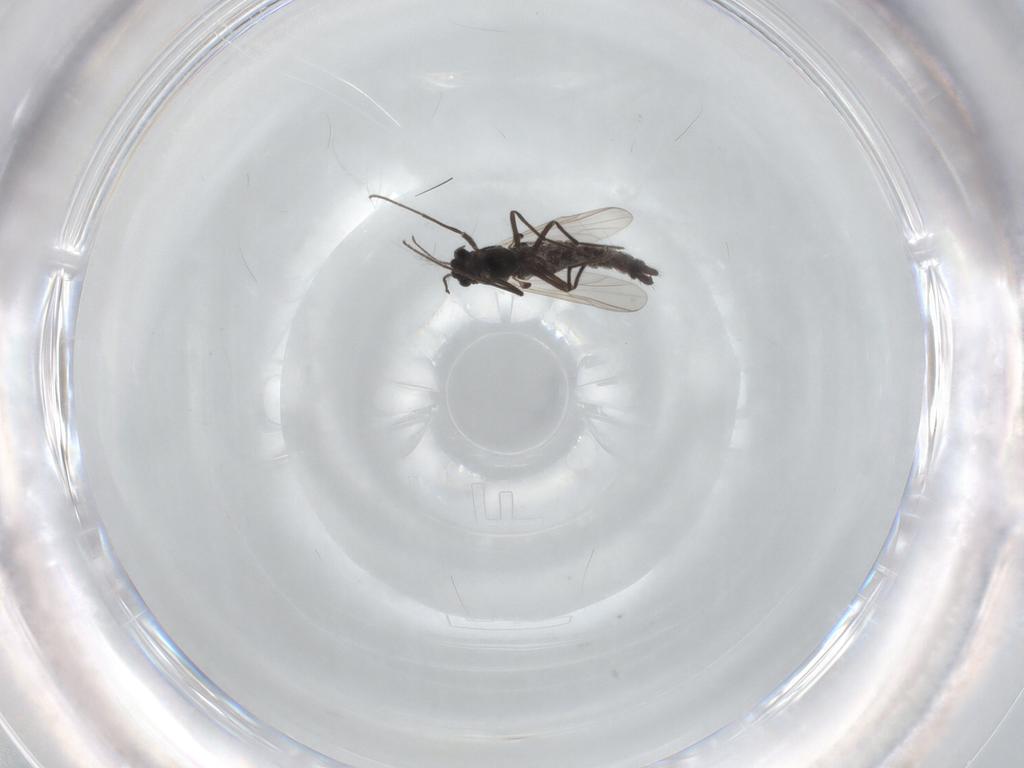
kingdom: Animalia
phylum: Arthropoda
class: Insecta
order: Diptera
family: Chironomidae
